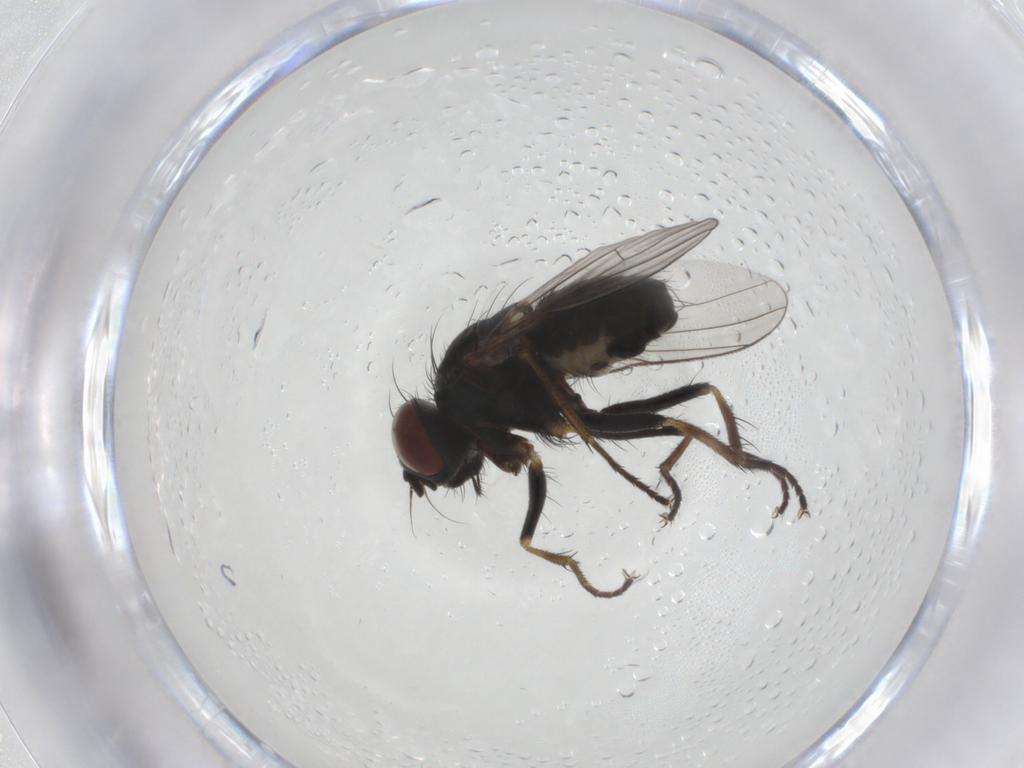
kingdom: Animalia
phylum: Arthropoda
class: Insecta
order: Diptera
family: Muscidae
